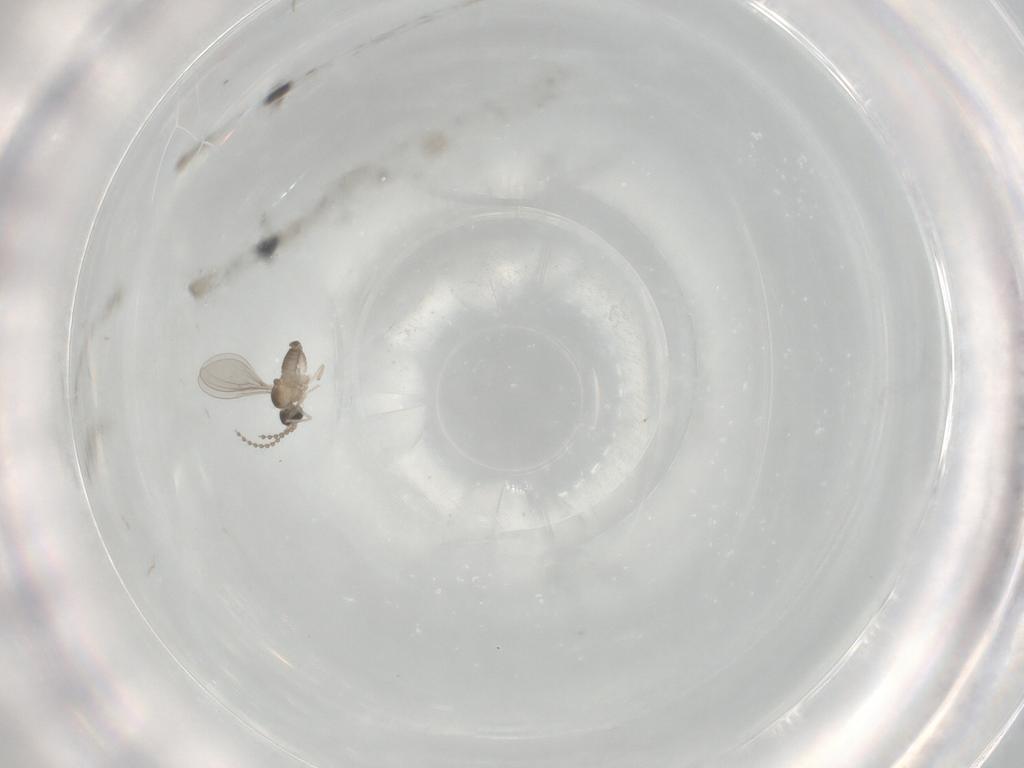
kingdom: Animalia
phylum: Arthropoda
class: Insecta
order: Diptera
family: Cecidomyiidae
